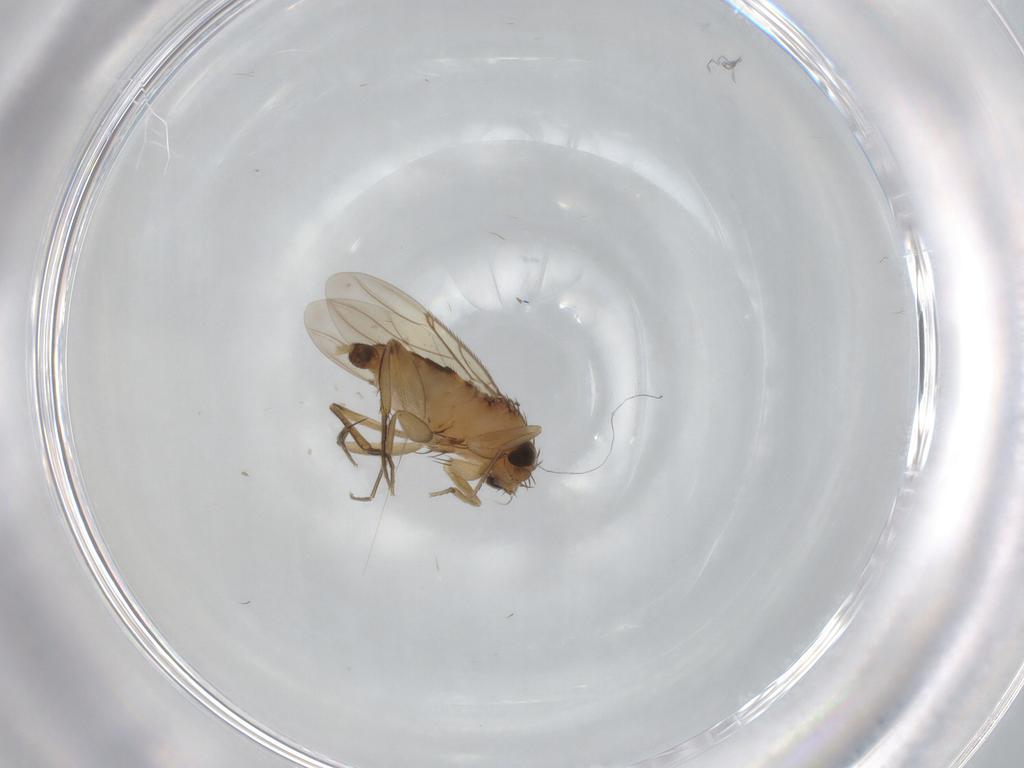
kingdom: Animalia
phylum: Arthropoda
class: Insecta
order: Diptera
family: Phoridae
